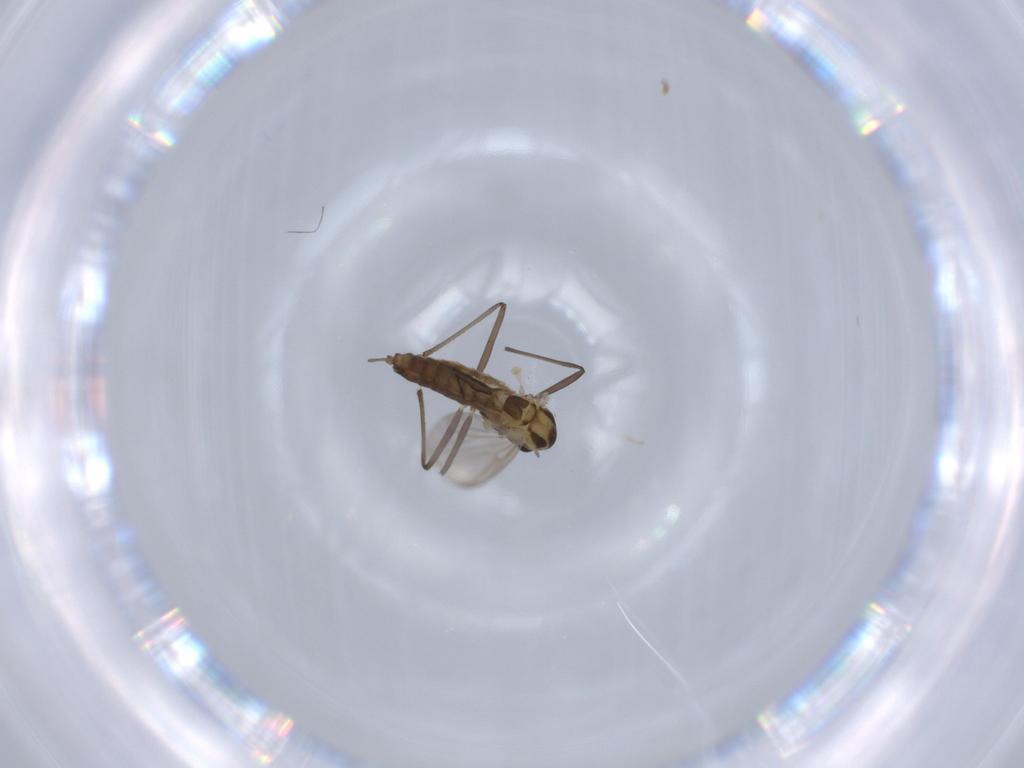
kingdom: Animalia
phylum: Arthropoda
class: Insecta
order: Diptera
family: Chironomidae
